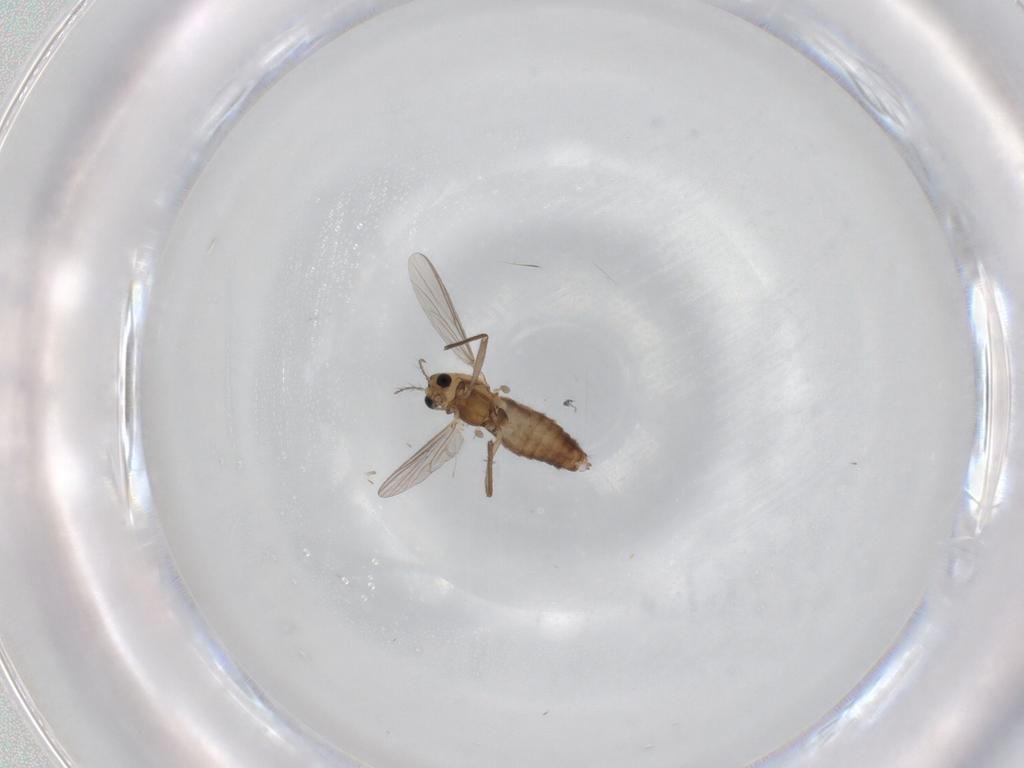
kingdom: Animalia
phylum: Arthropoda
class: Insecta
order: Diptera
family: Chironomidae
